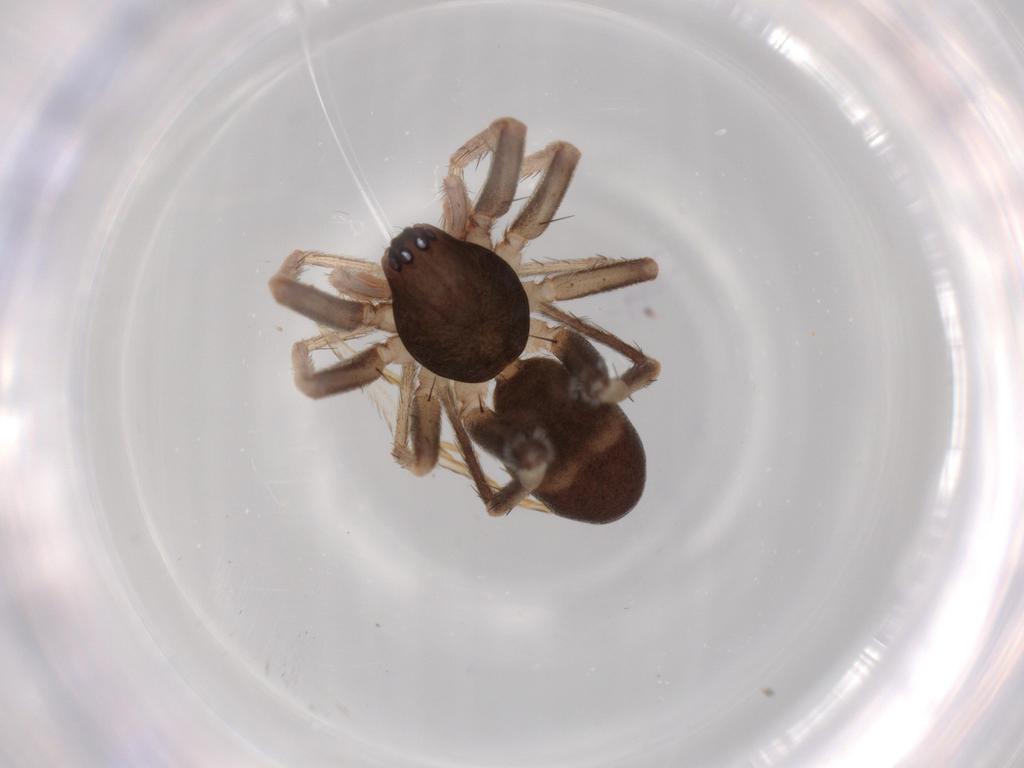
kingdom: Animalia
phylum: Arthropoda
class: Arachnida
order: Araneae
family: Corinnidae
